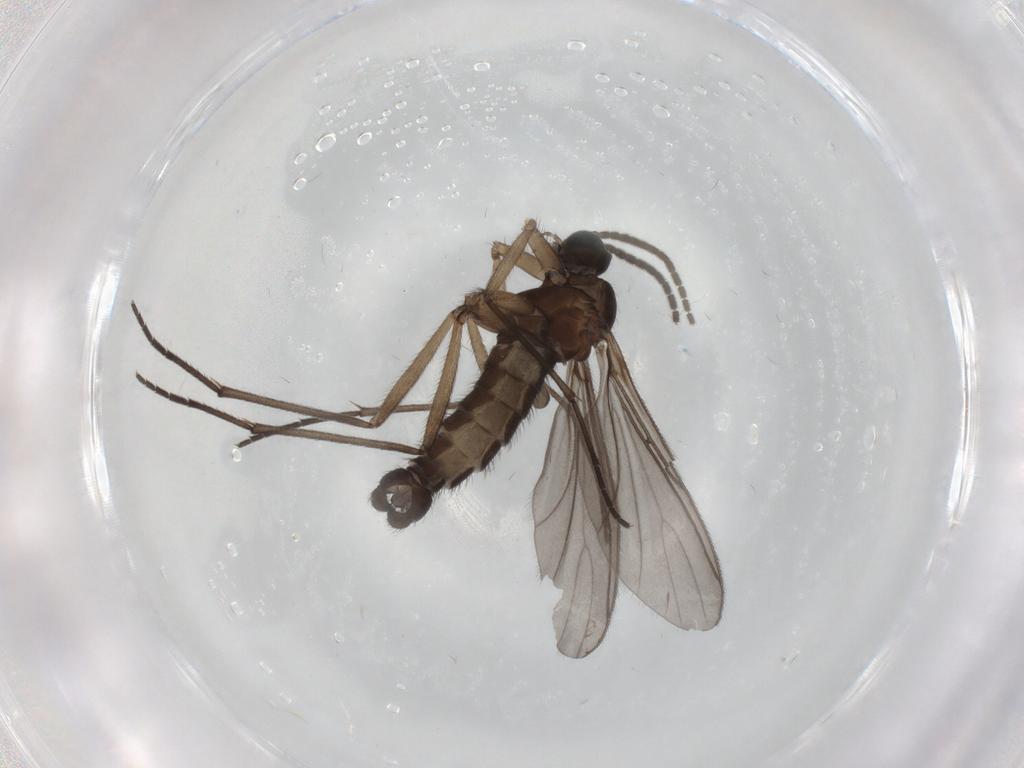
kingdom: Animalia
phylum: Arthropoda
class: Insecta
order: Diptera
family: Sciaridae
